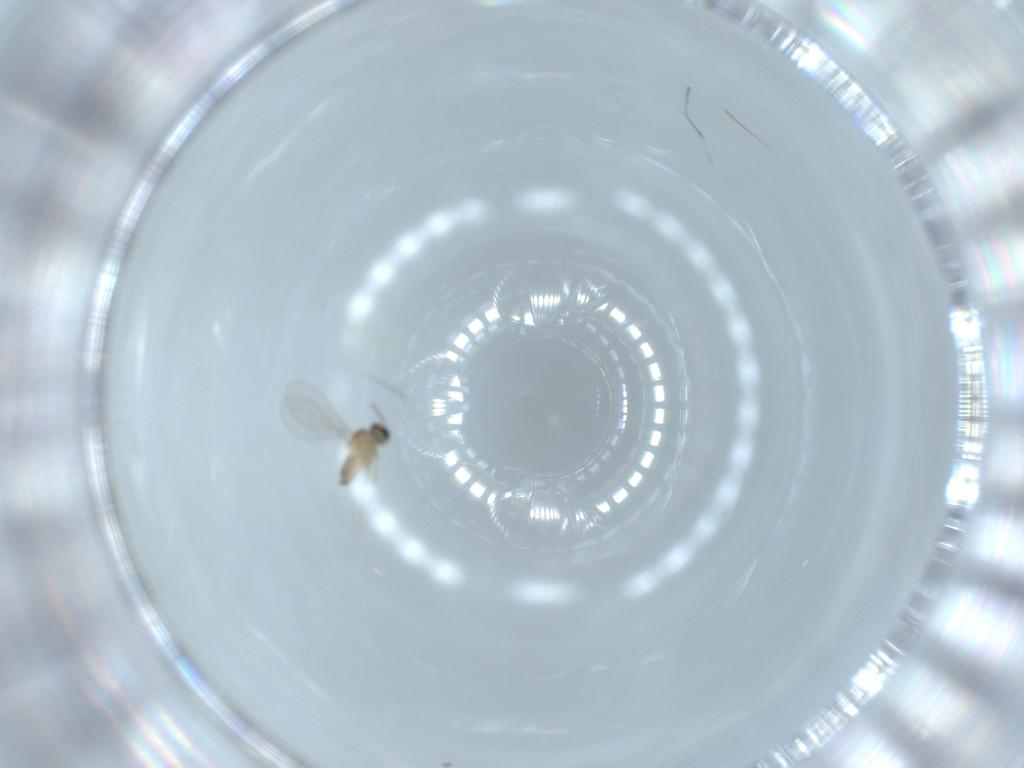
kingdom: Animalia
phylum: Arthropoda
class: Insecta
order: Diptera
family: Cecidomyiidae
